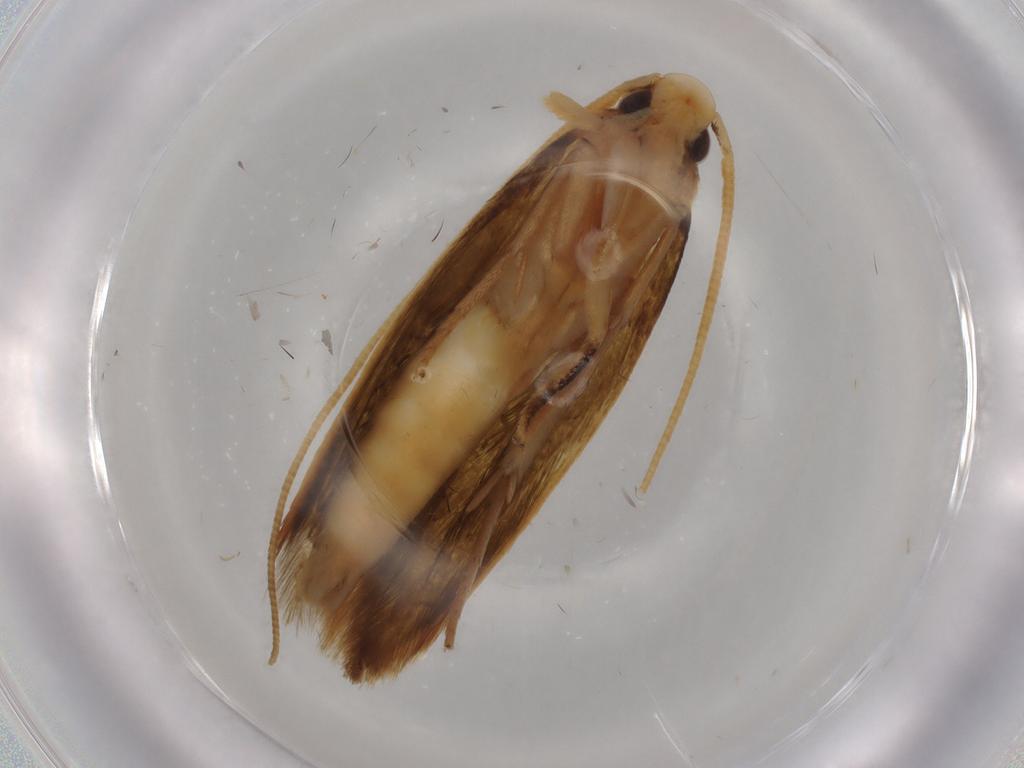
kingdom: Animalia
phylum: Arthropoda
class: Insecta
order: Lepidoptera
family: Tineidae
